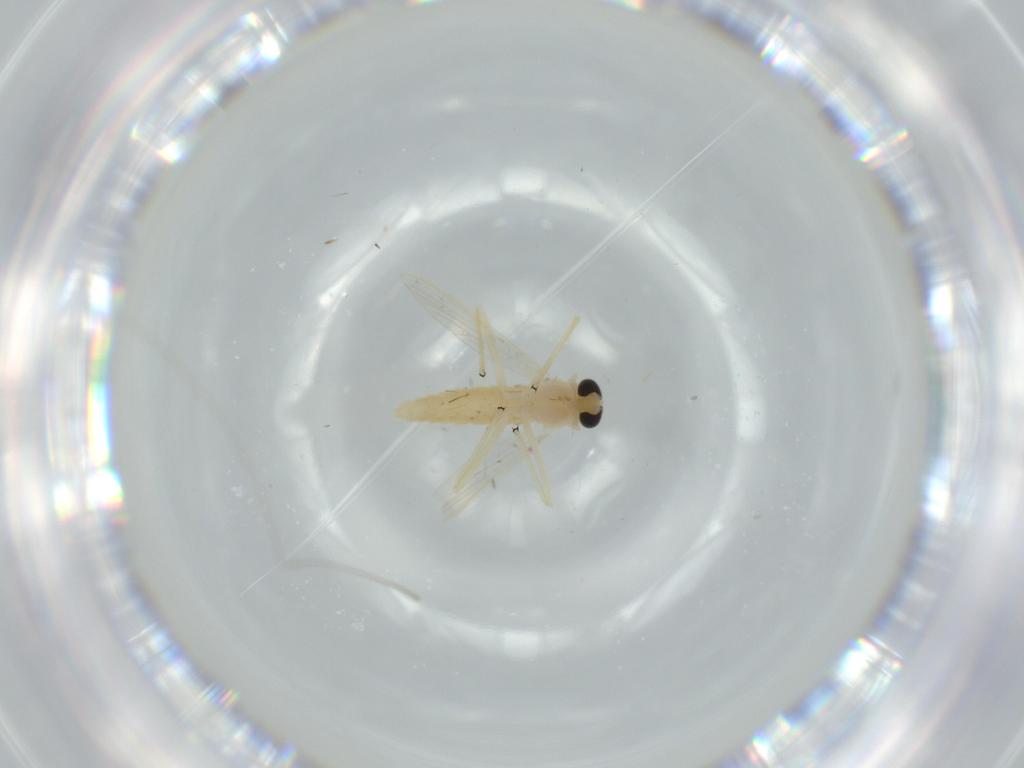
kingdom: Animalia
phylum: Arthropoda
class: Insecta
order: Diptera
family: Chironomidae
